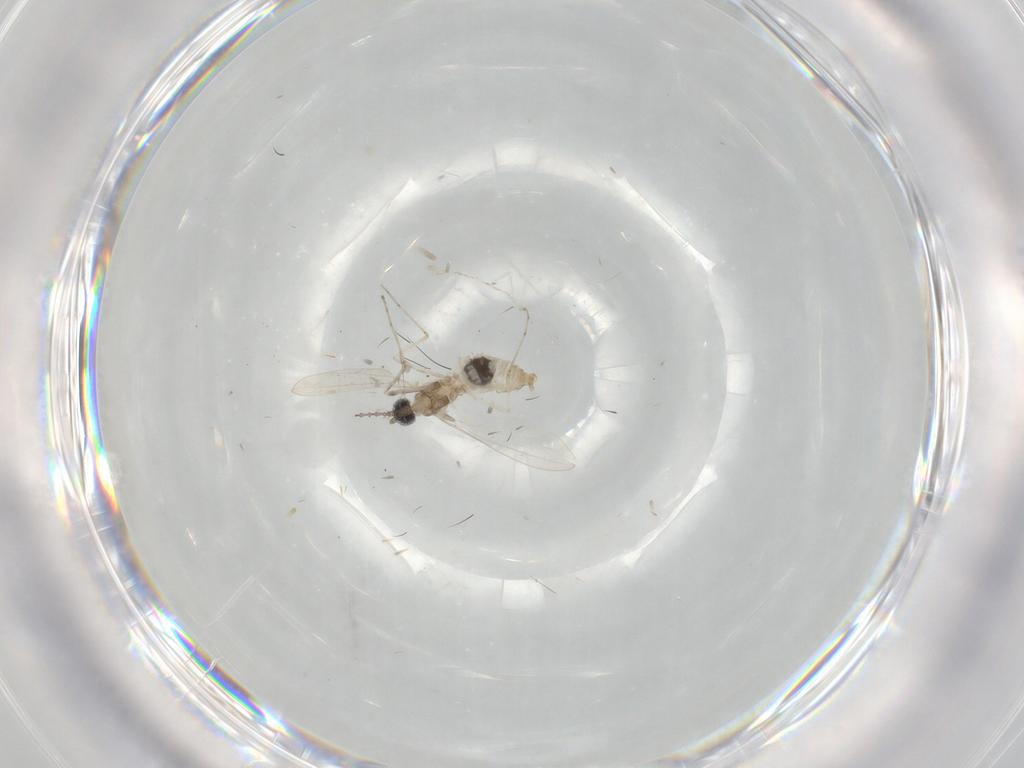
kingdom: Animalia
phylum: Arthropoda
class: Insecta
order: Diptera
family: Cecidomyiidae
